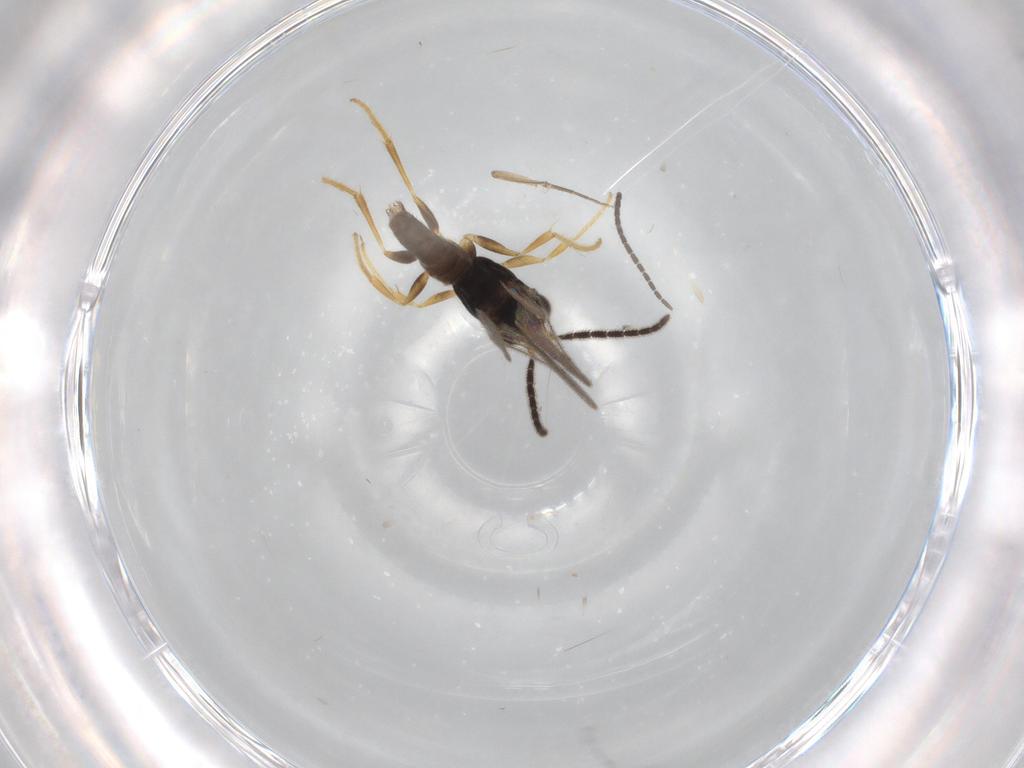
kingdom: Animalia
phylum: Arthropoda
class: Insecta
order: Hymenoptera
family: Dryinidae
